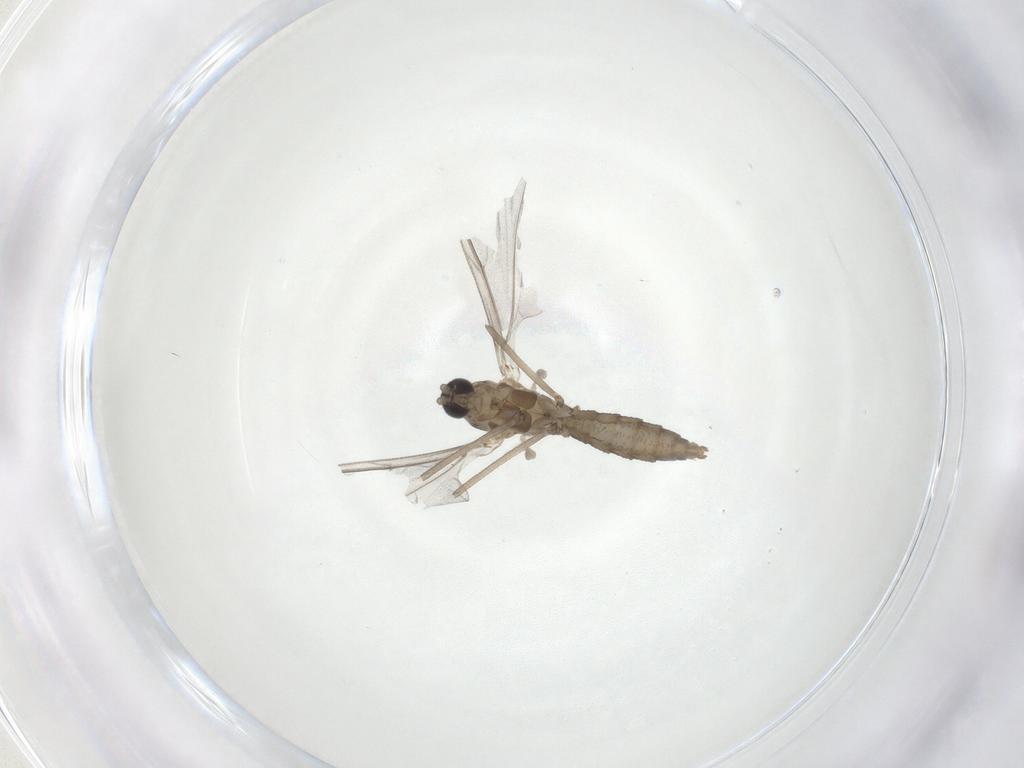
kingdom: Animalia
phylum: Arthropoda
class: Insecta
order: Diptera
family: Cecidomyiidae
